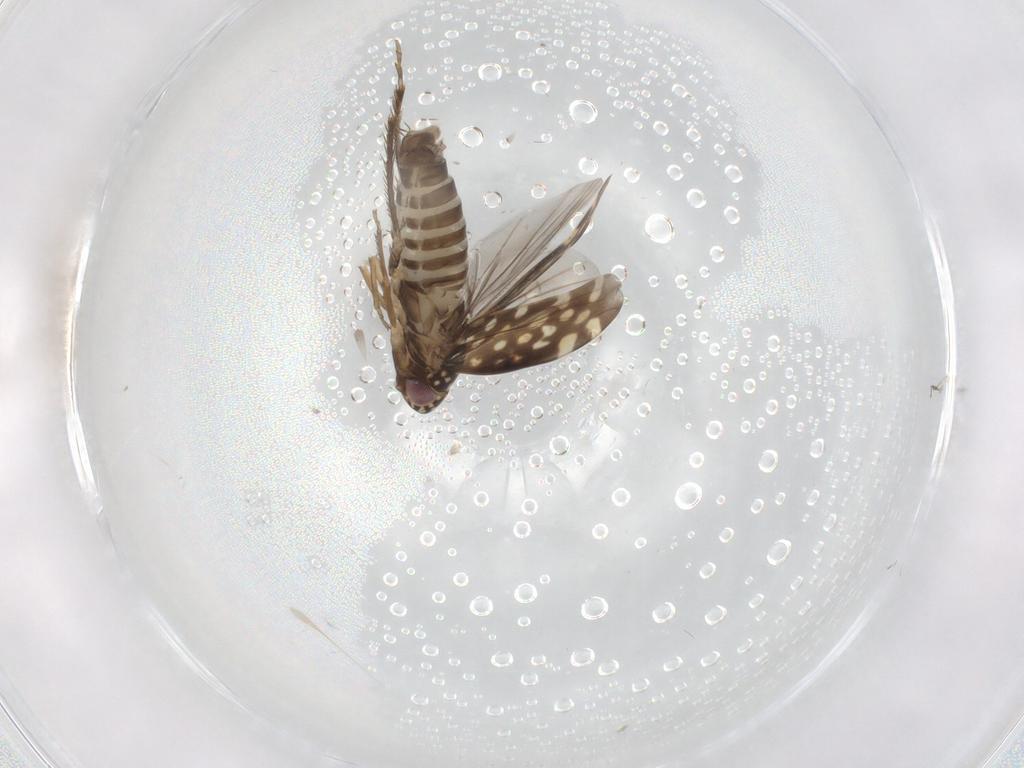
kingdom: Animalia
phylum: Arthropoda
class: Insecta
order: Hemiptera
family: Cicadellidae
